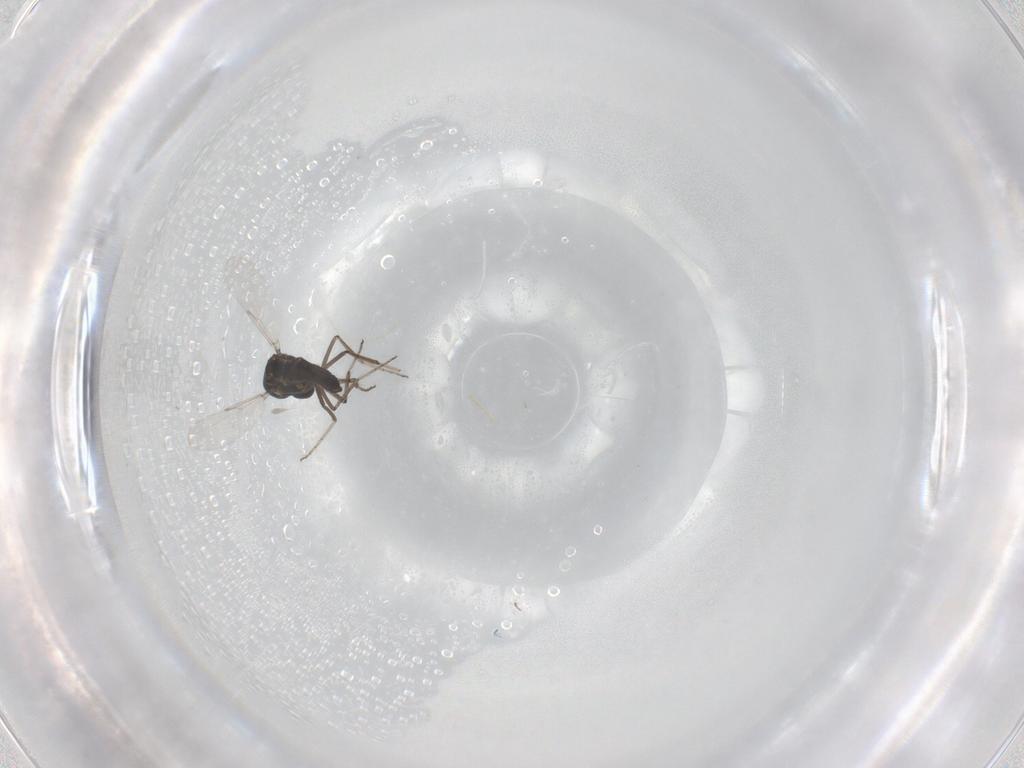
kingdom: Animalia
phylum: Arthropoda
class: Insecta
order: Diptera
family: Ceratopogonidae
